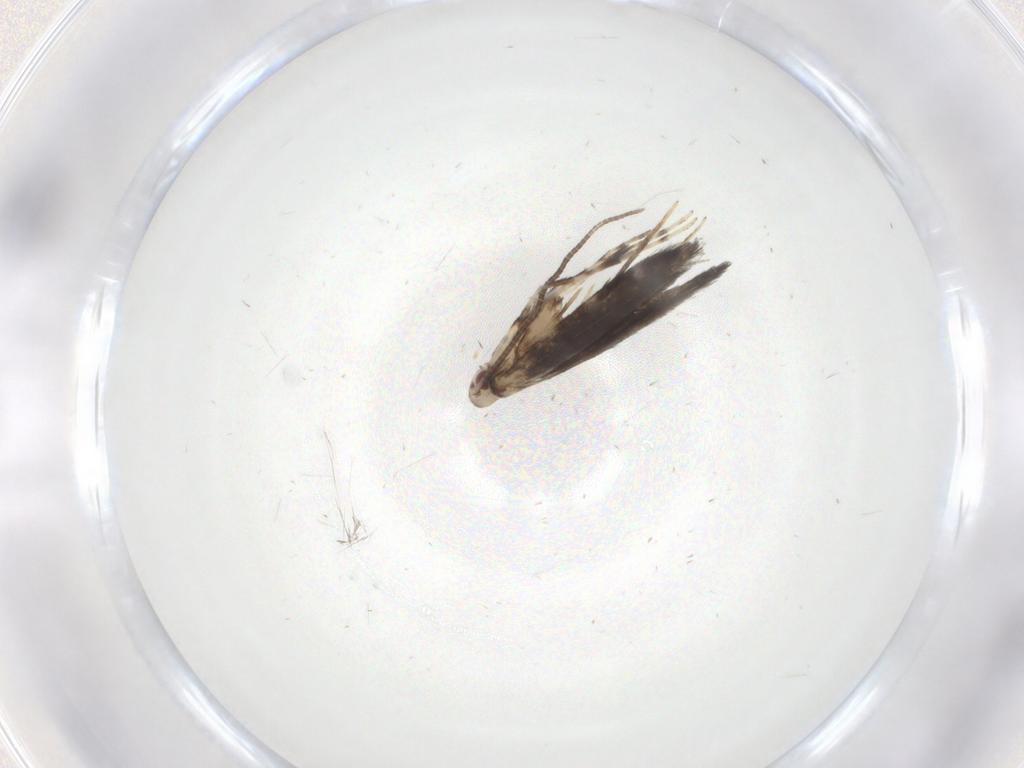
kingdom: Animalia
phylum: Arthropoda
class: Insecta
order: Lepidoptera
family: Gracillariidae
